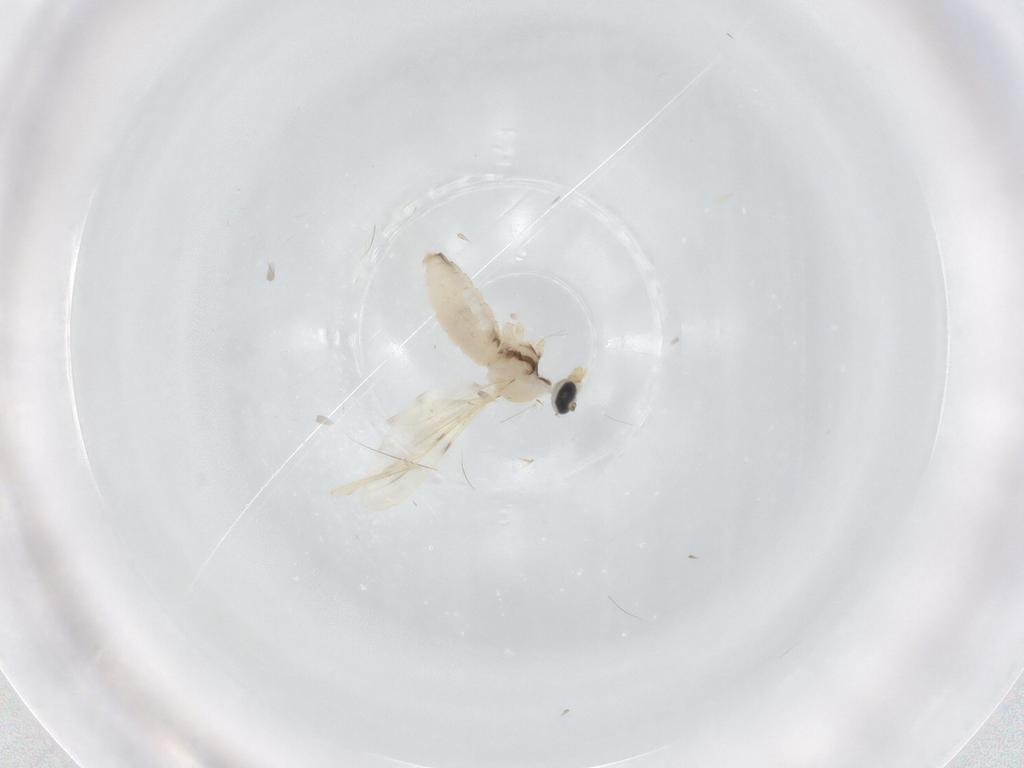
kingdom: Animalia
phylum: Arthropoda
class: Insecta
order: Diptera
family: Cecidomyiidae
